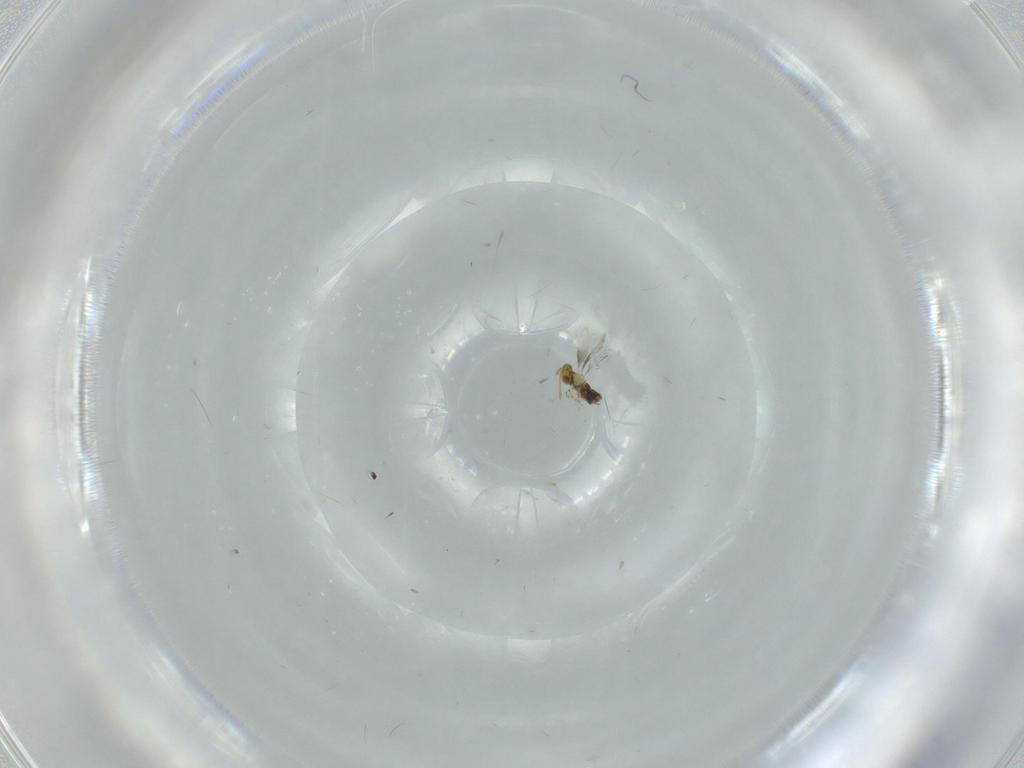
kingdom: Animalia
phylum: Arthropoda
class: Insecta
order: Hymenoptera
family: Aphelinidae
